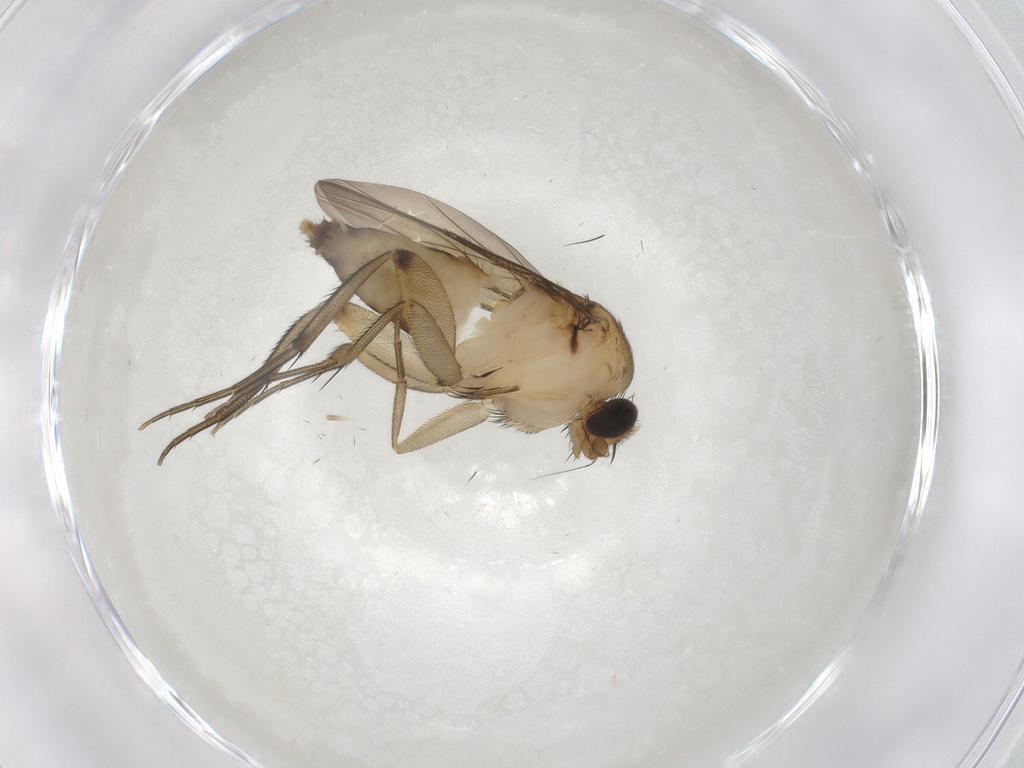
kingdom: Animalia
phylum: Arthropoda
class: Insecta
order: Diptera
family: Phoridae
